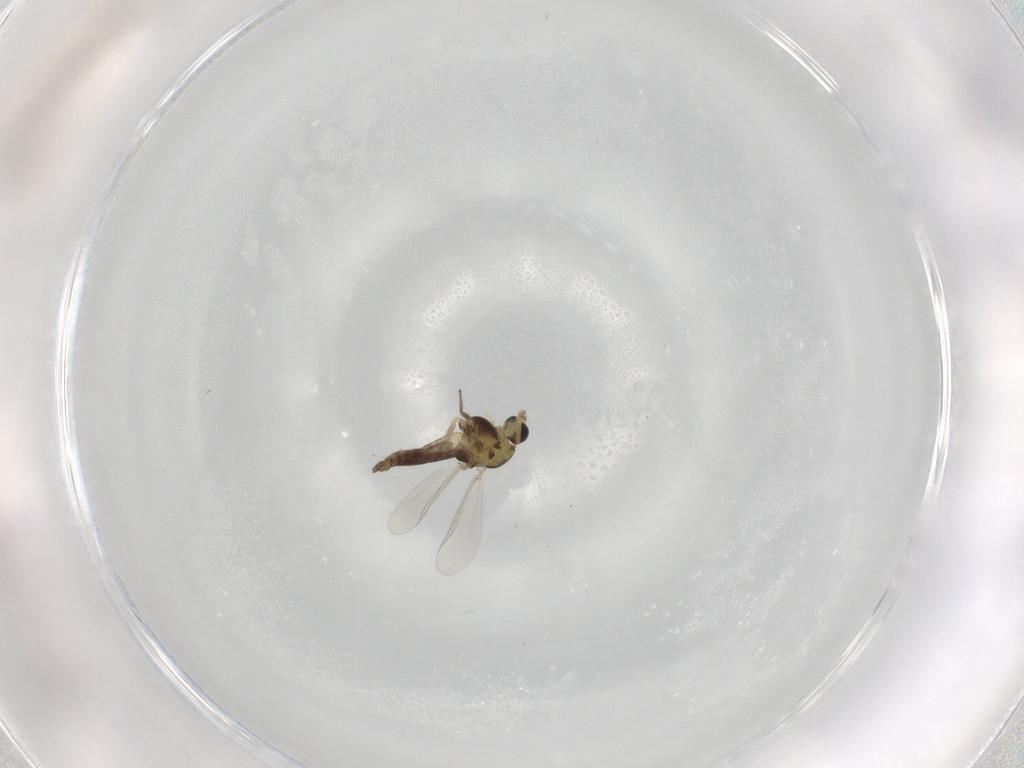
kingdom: Animalia
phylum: Arthropoda
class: Insecta
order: Diptera
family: Chironomidae
